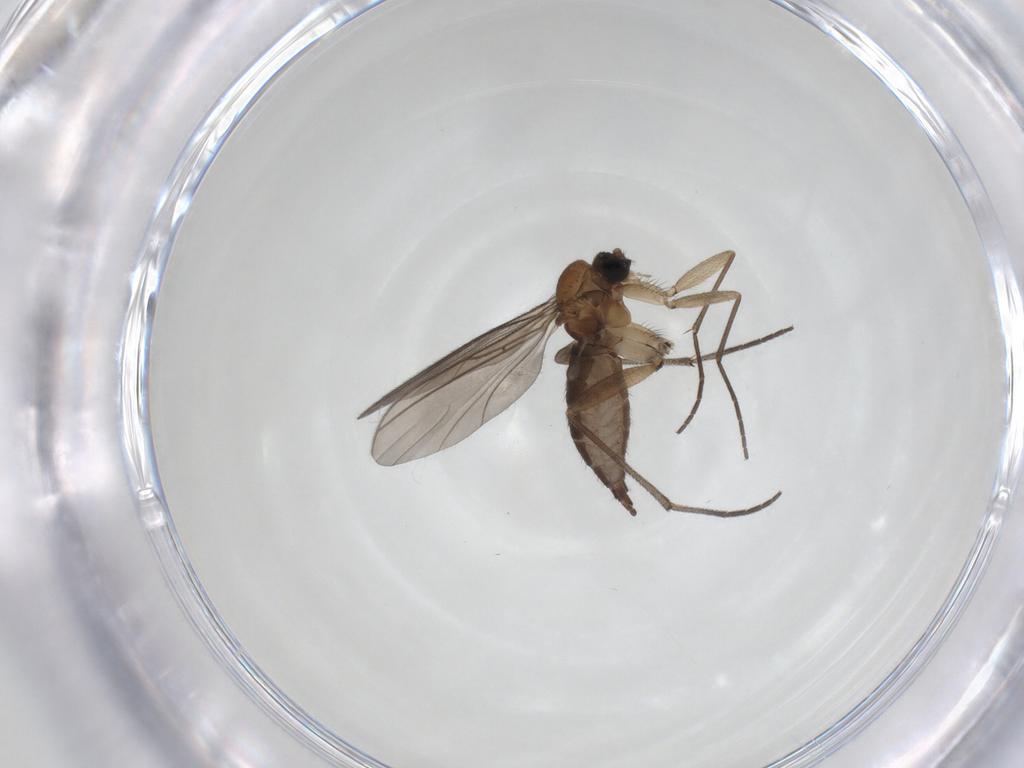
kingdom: Animalia
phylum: Arthropoda
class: Insecta
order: Diptera
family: Sciaridae
